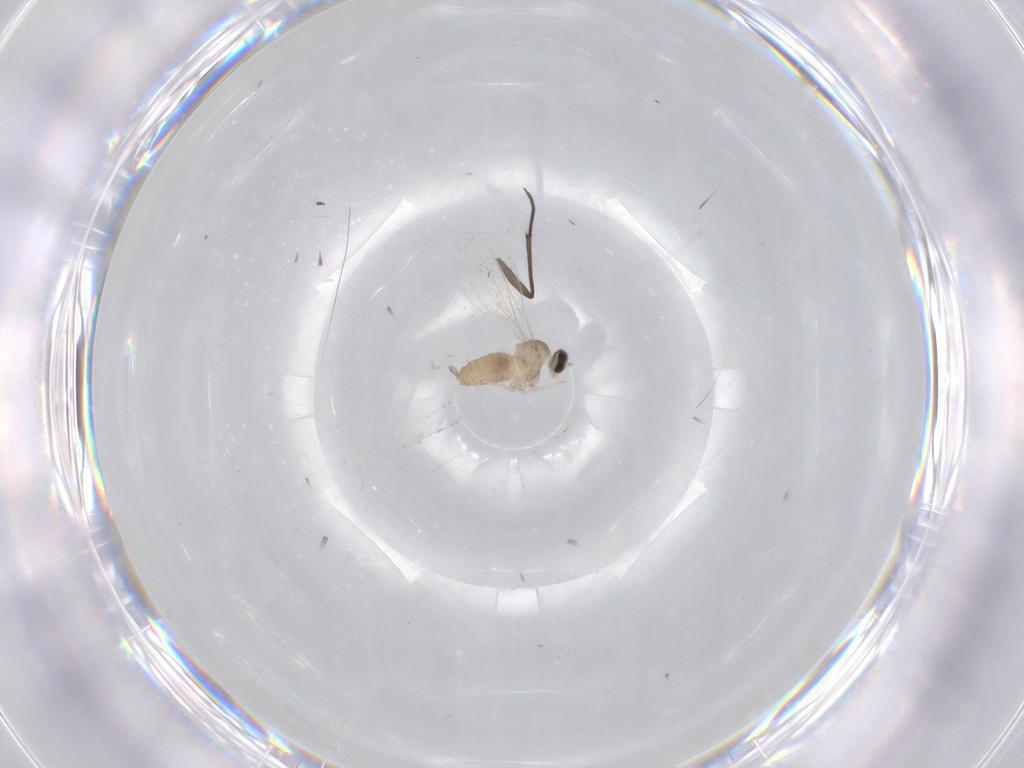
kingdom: Animalia
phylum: Arthropoda
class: Insecta
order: Diptera
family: Cecidomyiidae
